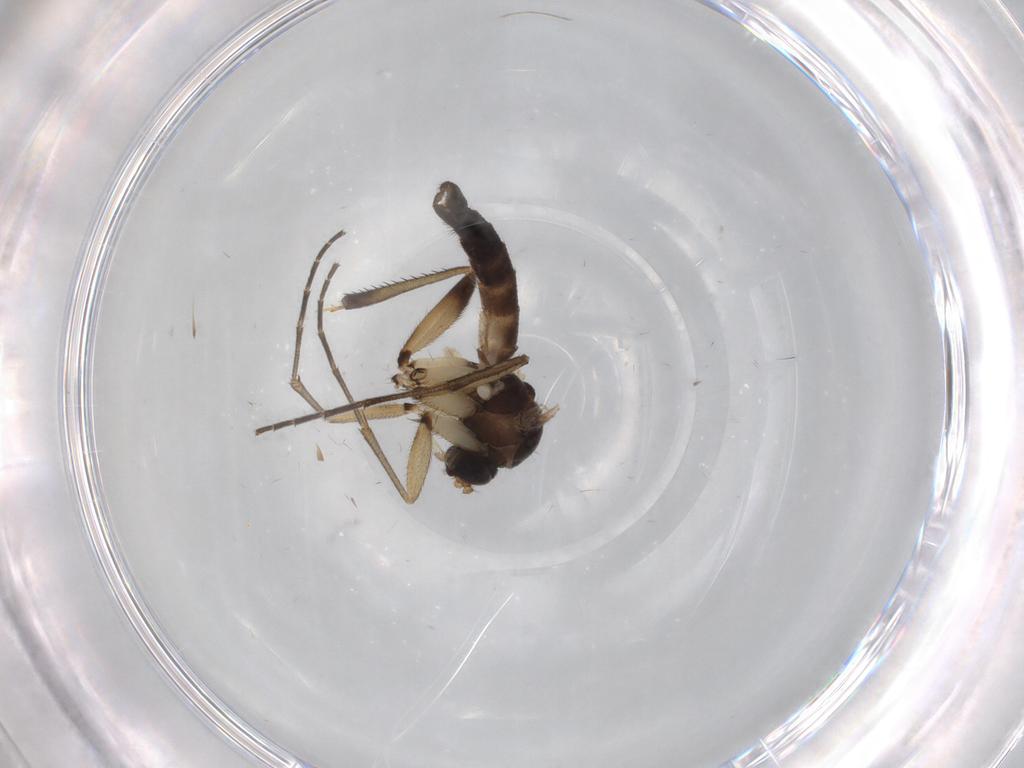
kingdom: Animalia
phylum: Arthropoda
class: Insecta
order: Diptera
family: Mycetophilidae
